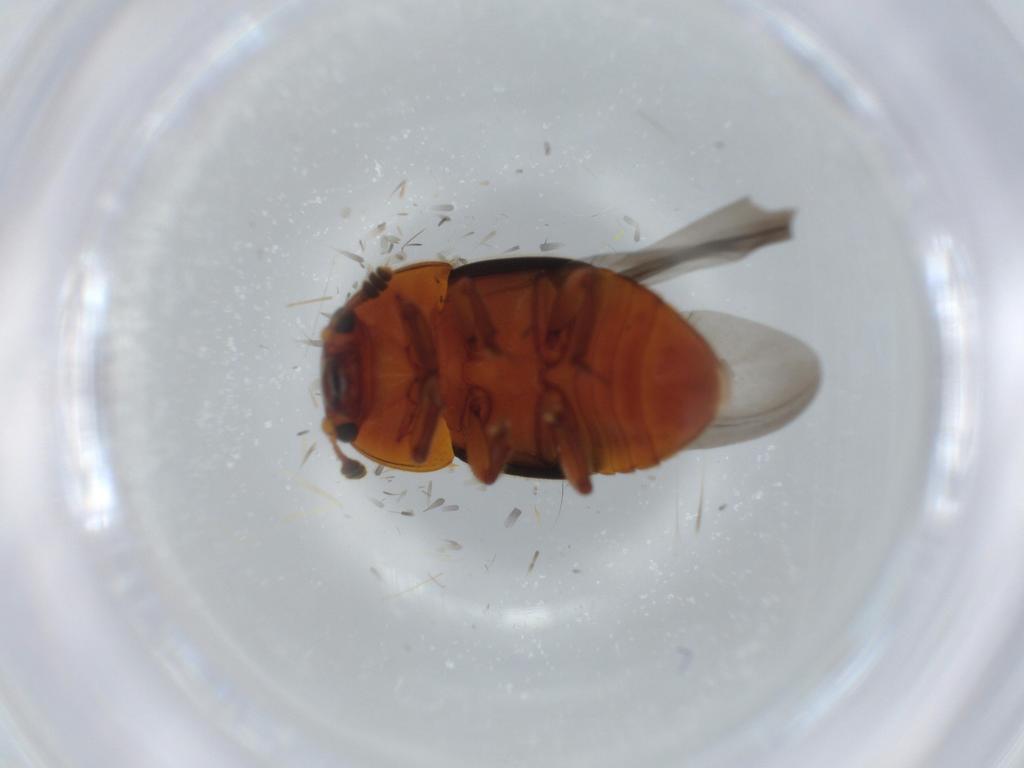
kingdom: Animalia
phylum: Arthropoda
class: Insecta
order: Coleoptera
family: Nitidulidae
